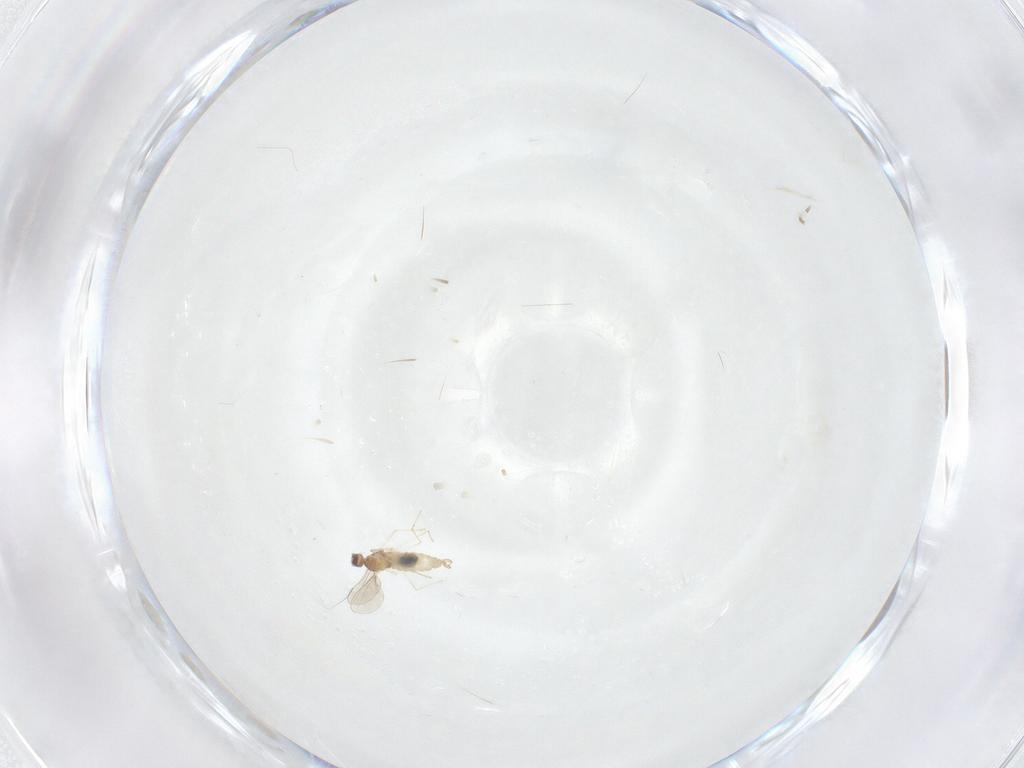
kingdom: Animalia
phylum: Arthropoda
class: Insecta
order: Diptera
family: Cecidomyiidae
